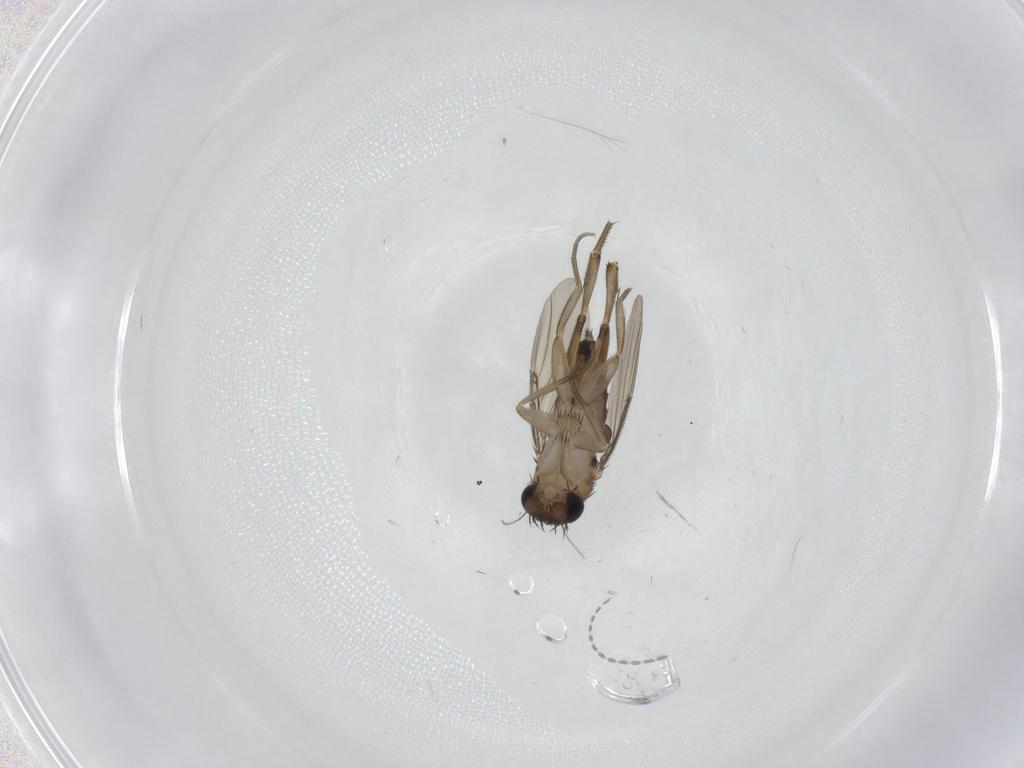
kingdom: Animalia
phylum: Arthropoda
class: Insecta
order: Diptera
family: Phoridae
